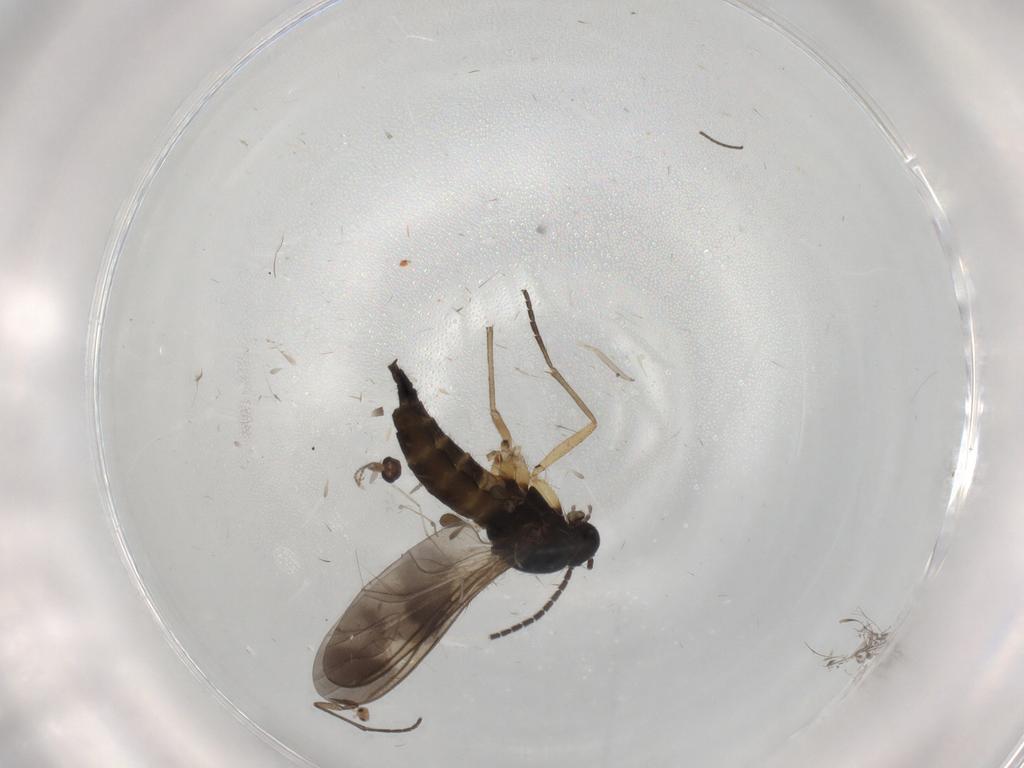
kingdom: Animalia
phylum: Arthropoda
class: Insecta
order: Diptera
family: Sciaridae
